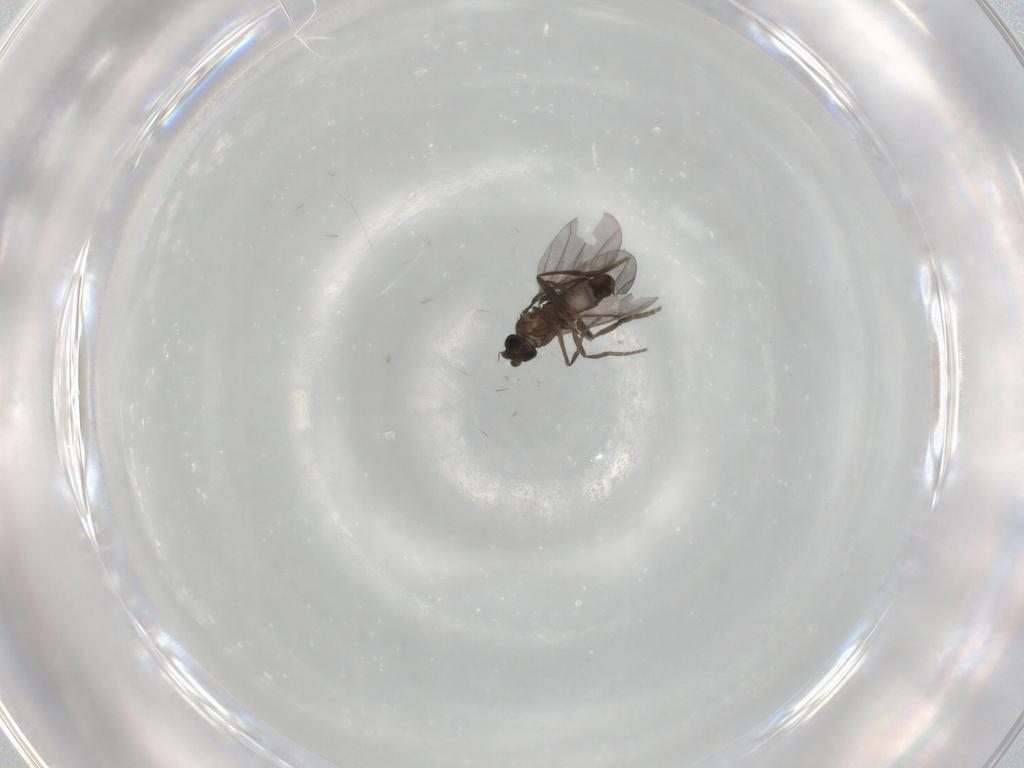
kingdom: Animalia
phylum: Arthropoda
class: Insecta
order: Diptera
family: Phoridae
